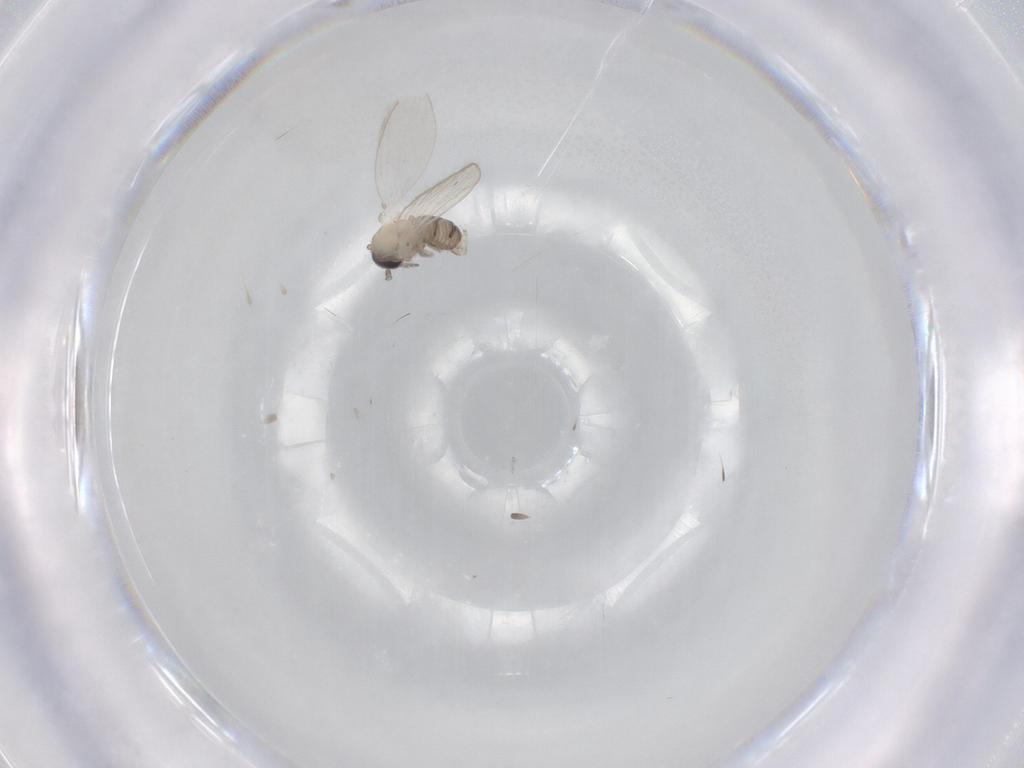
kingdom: Animalia
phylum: Arthropoda
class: Insecta
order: Diptera
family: Psychodidae
